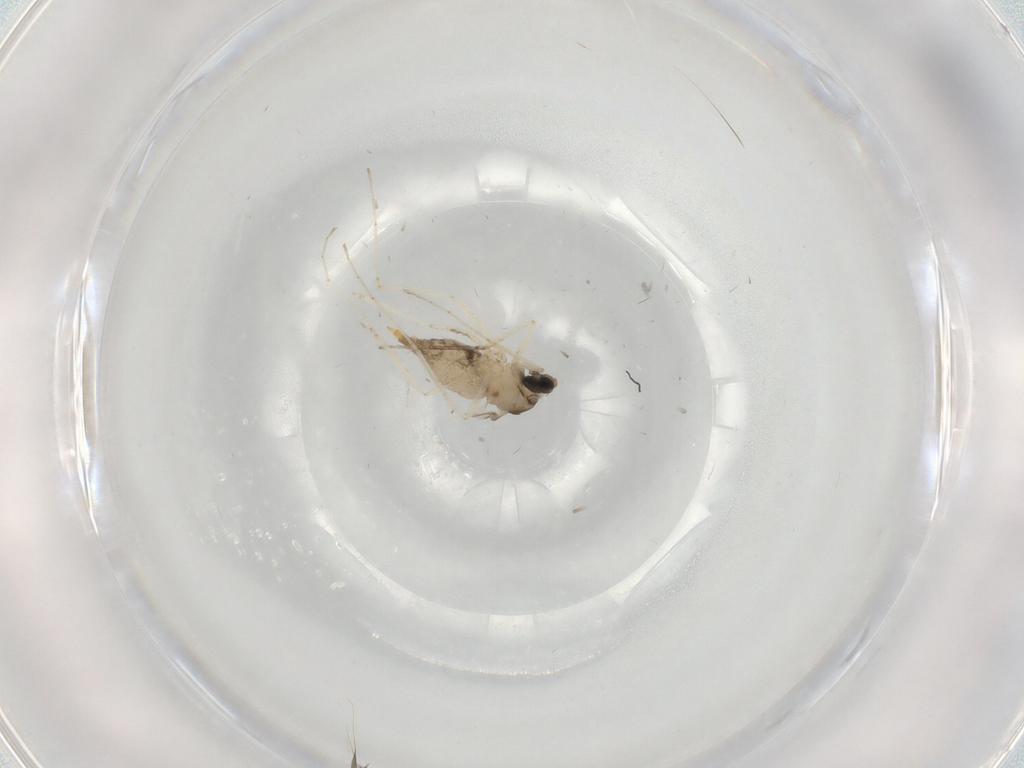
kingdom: Animalia
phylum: Arthropoda
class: Insecta
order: Diptera
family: Cecidomyiidae
